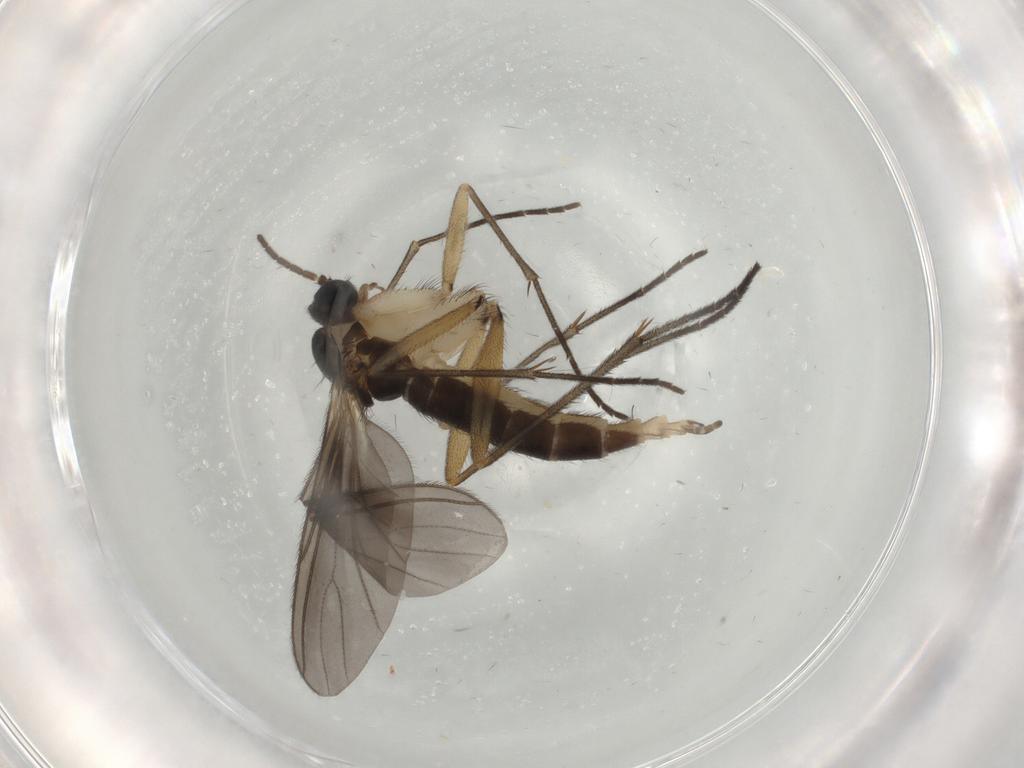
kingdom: Animalia
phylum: Arthropoda
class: Insecta
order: Diptera
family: Sciaridae
